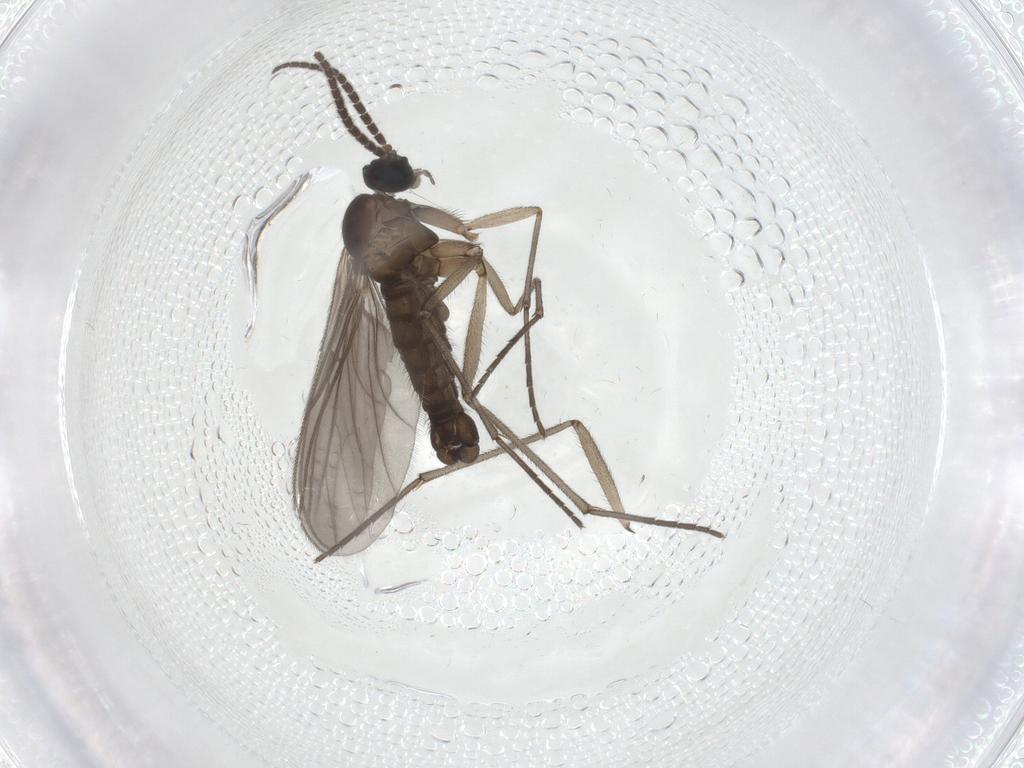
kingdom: Animalia
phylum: Arthropoda
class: Insecta
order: Diptera
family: Sciaridae
